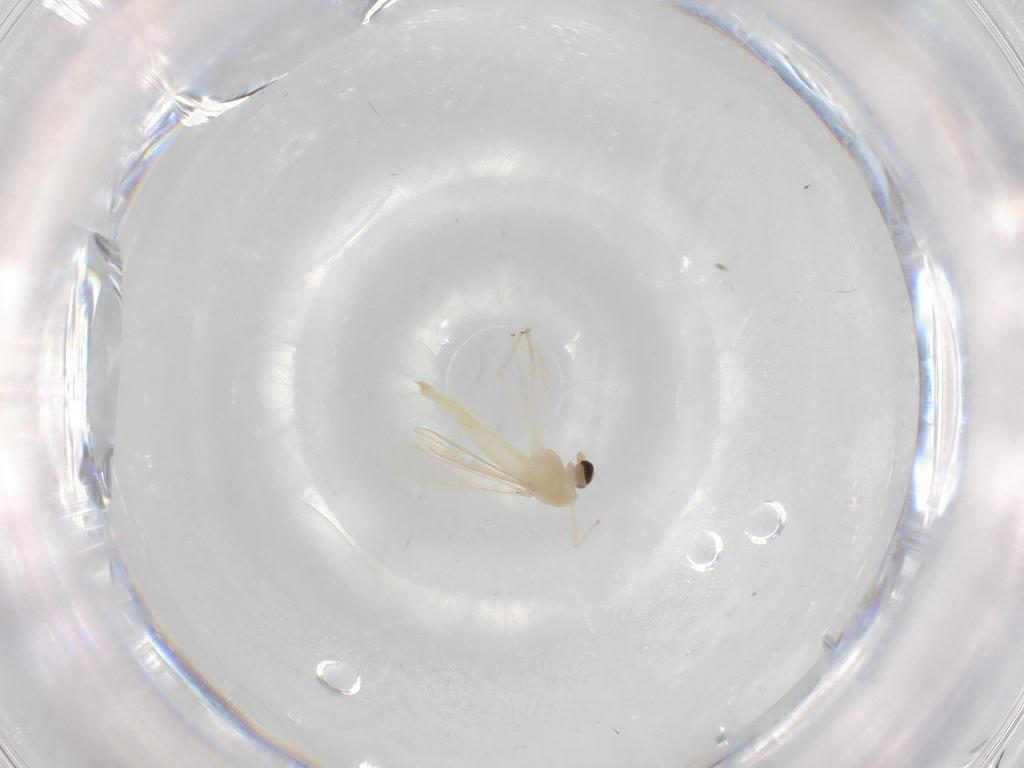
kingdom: Animalia
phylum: Arthropoda
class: Insecta
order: Diptera
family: Chironomidae
